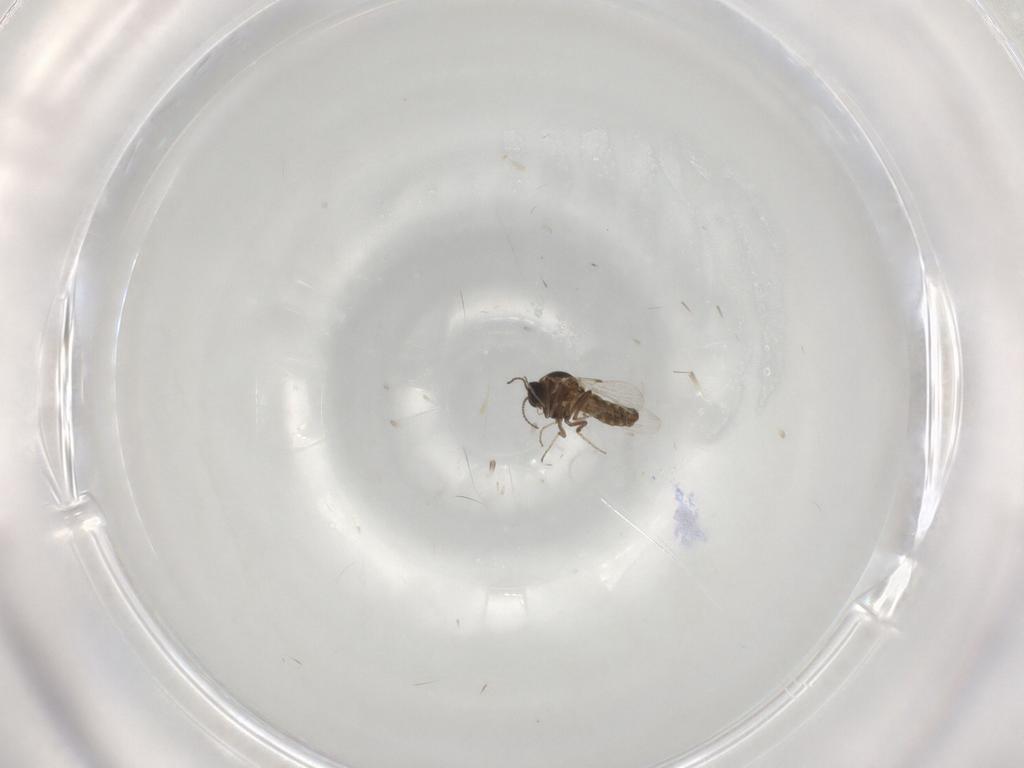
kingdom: Animalia
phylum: Arthropoda
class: Insecta
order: Diptera
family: Ceratopogonidae
